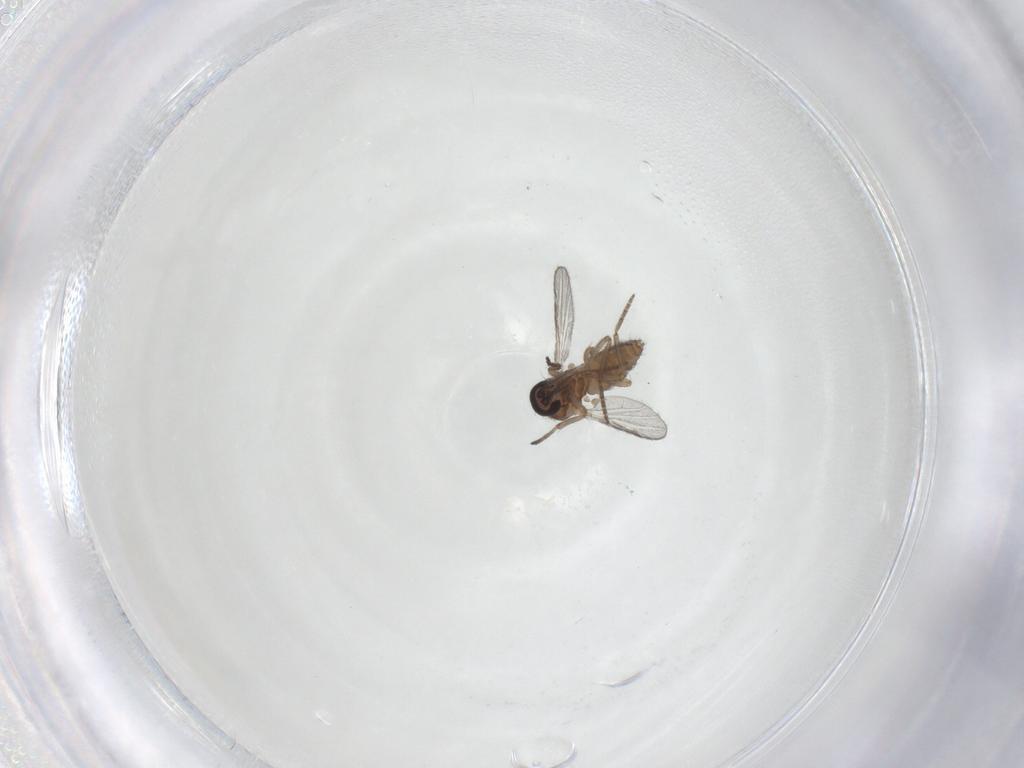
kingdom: Animalia
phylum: Arthropoda
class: Insecta
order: Diptera
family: Ceratopogonidae
